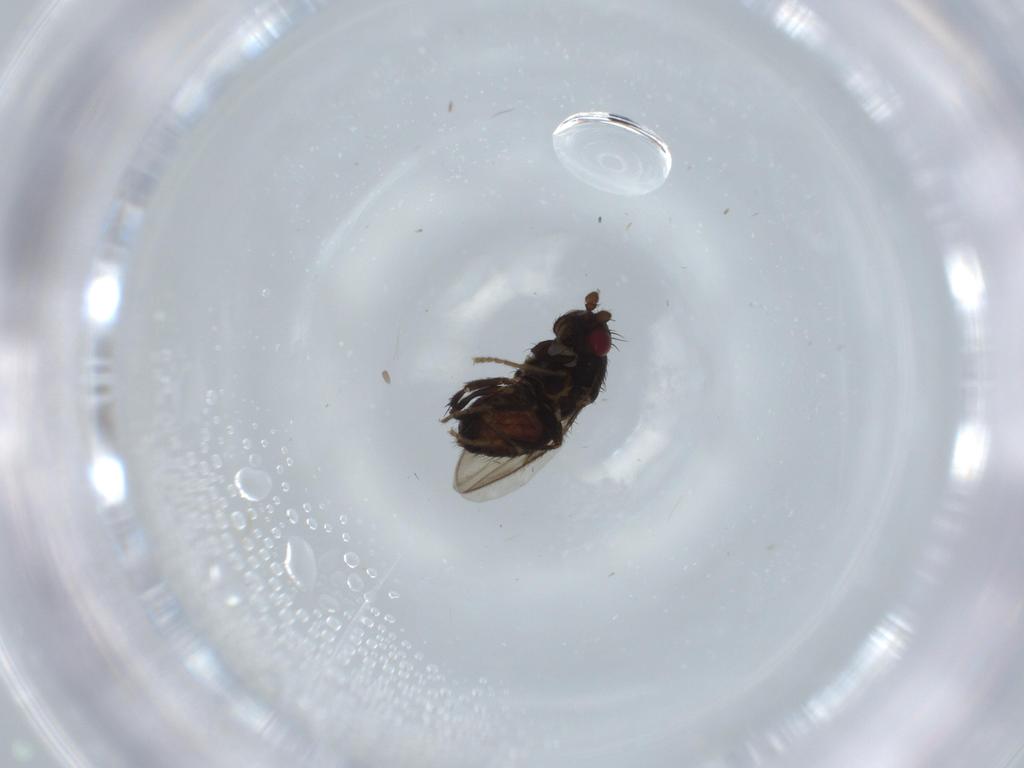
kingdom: Animalia
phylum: Arthropoda
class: Insecta
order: Diptera
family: Sphaeroceridae
